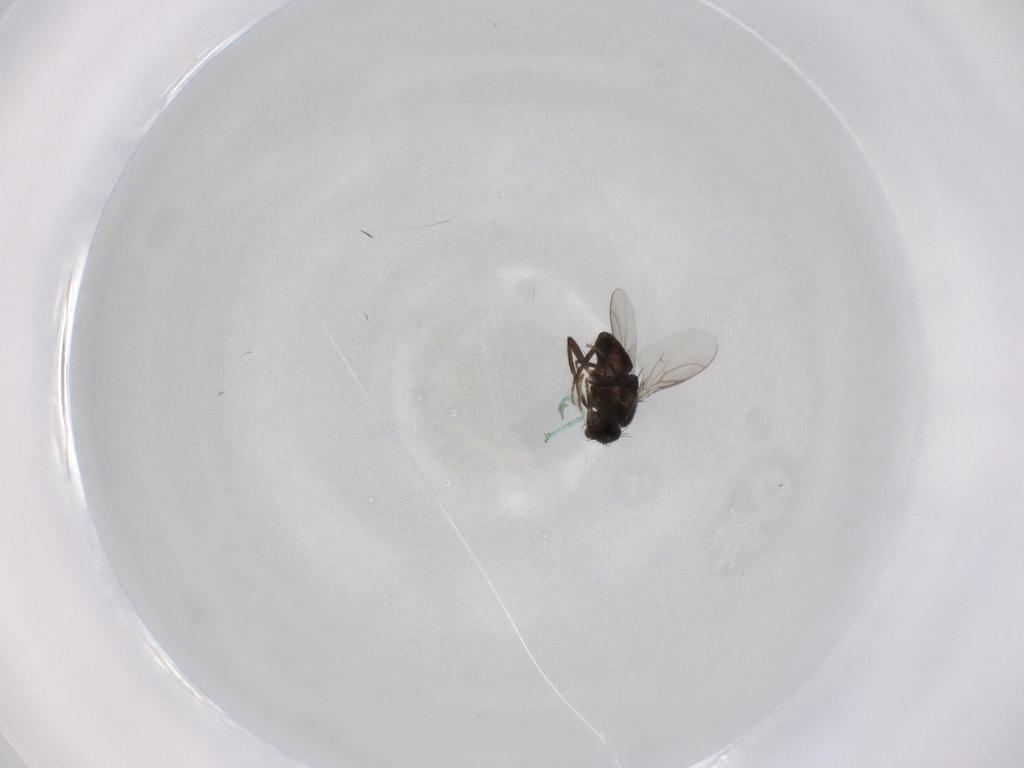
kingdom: Animalia
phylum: Arthropoda
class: Insecta
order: Diptera
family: Sphaeroceridae
